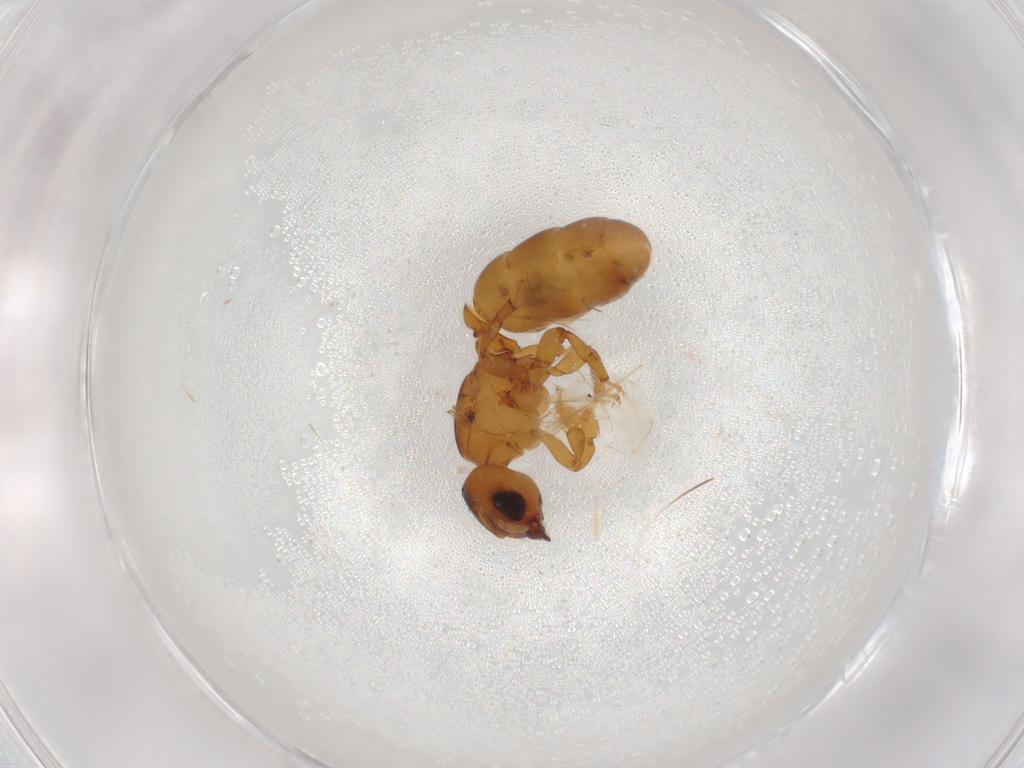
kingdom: Animalia
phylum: Arthropoda
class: Insecta
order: Hymenoptera
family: Formicidae
